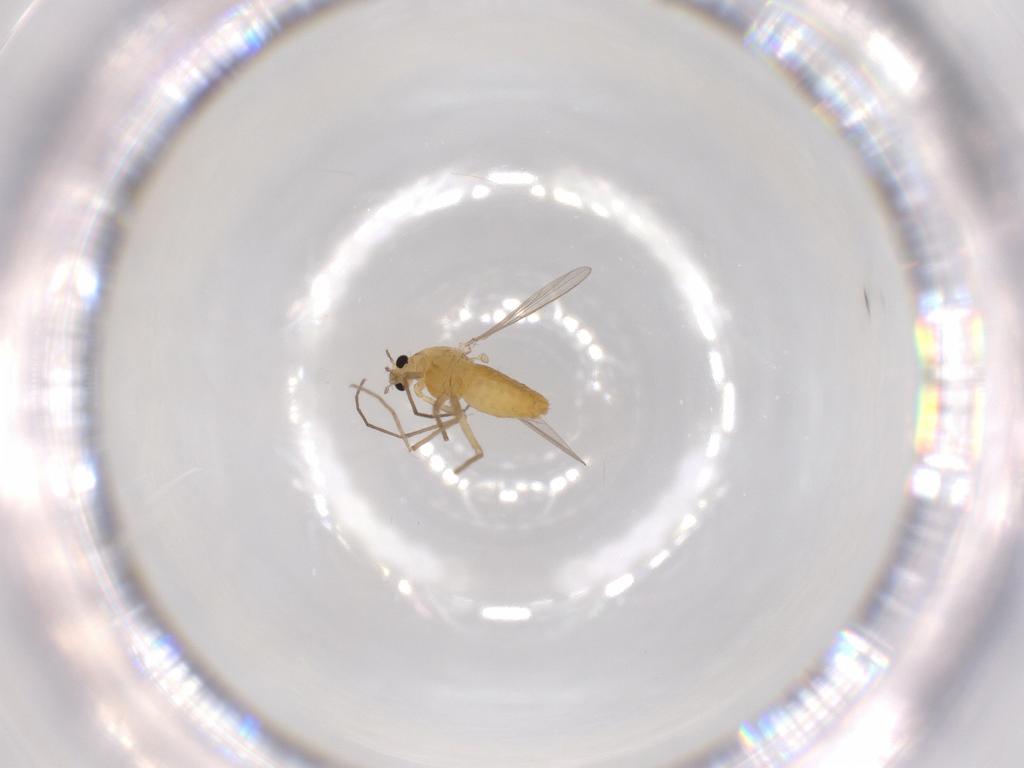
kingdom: Animalia
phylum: Arthropoda
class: Insecta
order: Diptera
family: Chironomidae
